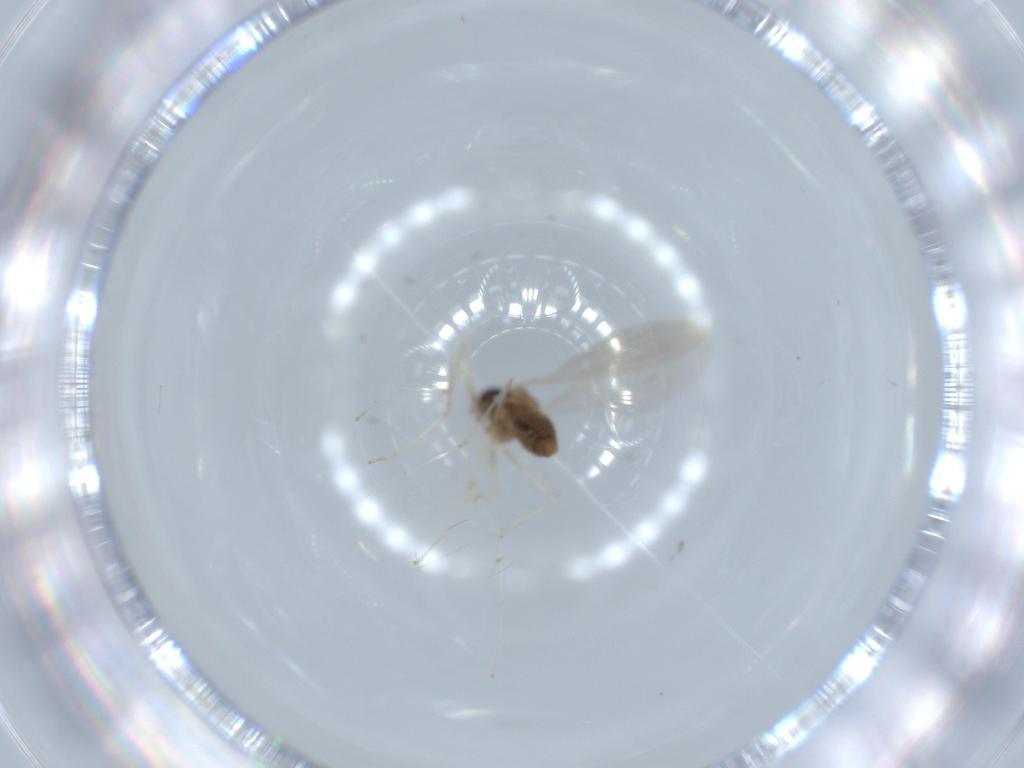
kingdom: Animalia
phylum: Arthropoda
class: Insecta
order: Diptera
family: Cecidomyiidae
